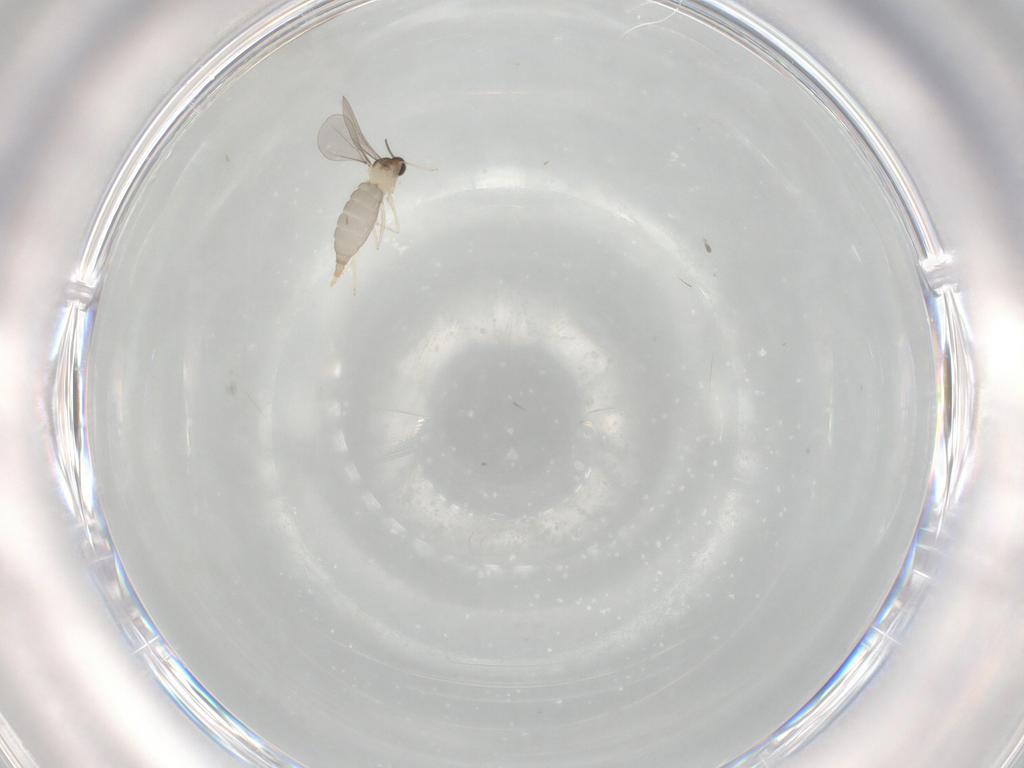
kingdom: Animalia
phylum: Arthropoda
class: Insecta
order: Diptera
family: Cecidomyiidae
